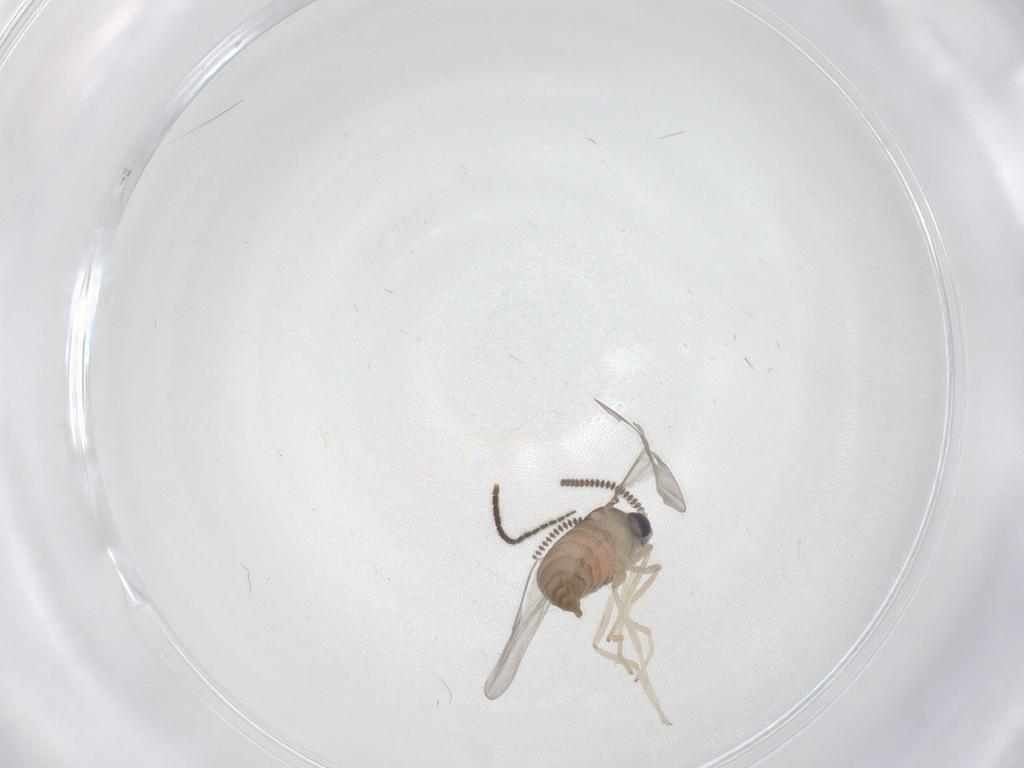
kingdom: Animalia
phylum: Arthropoda
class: Insecta
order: Diptera
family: Sciaridae
